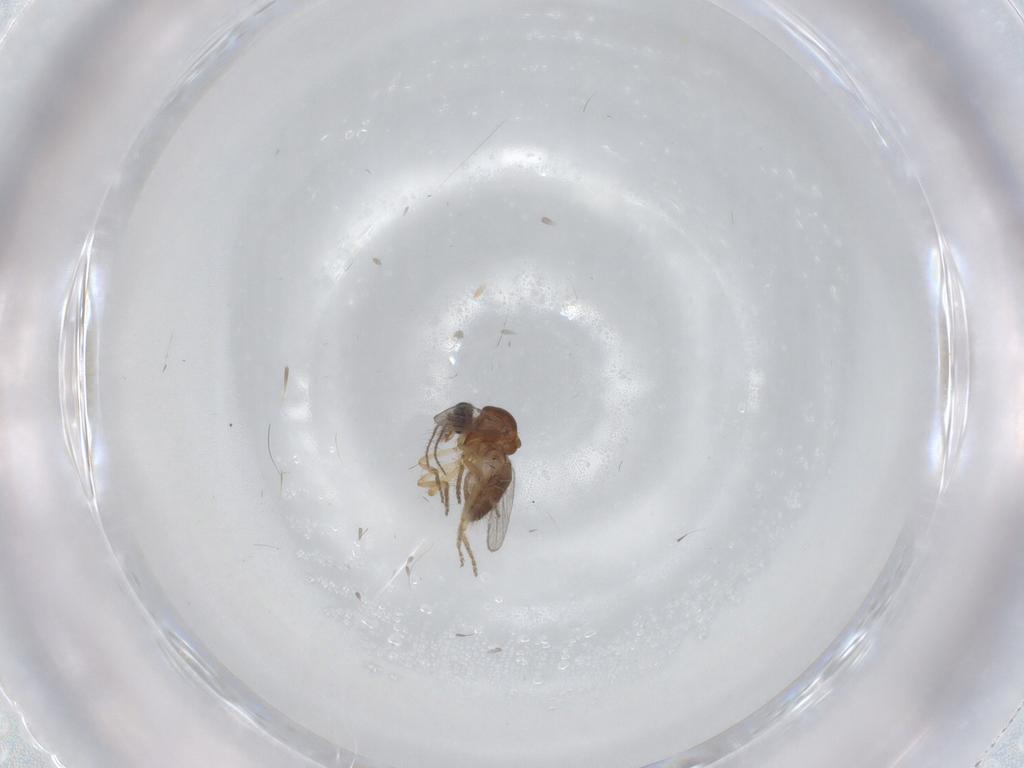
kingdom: Animalia
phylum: Arthropoda
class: Insecta
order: Diptera
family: Ceratopogonidae
